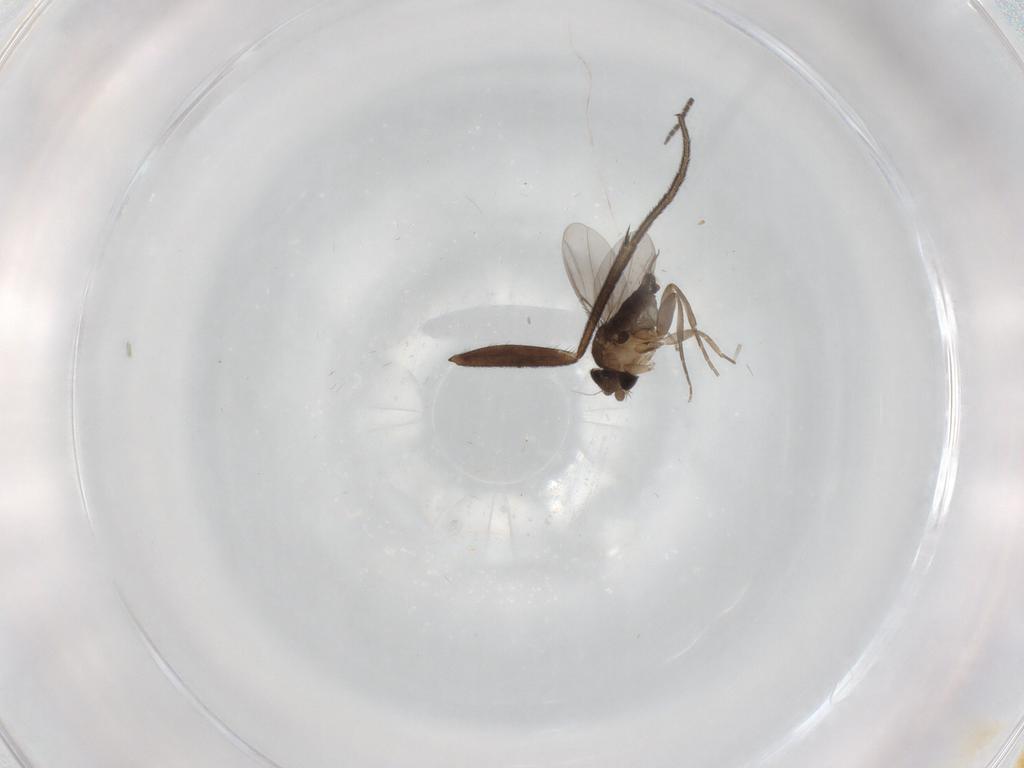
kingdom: Animalia
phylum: Arthropoda
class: Insecta
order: Diptera
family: Phoridae
